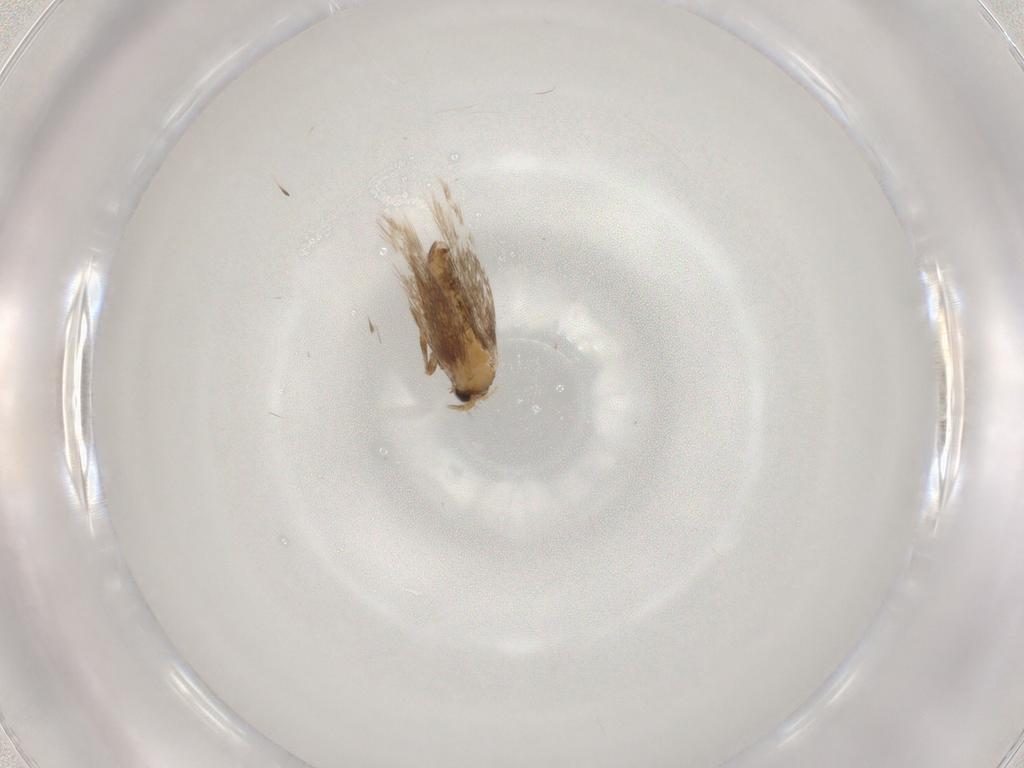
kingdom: Animalia
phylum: Arthropoda
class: Insecta
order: Lepidoptera
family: Nepticulidae
